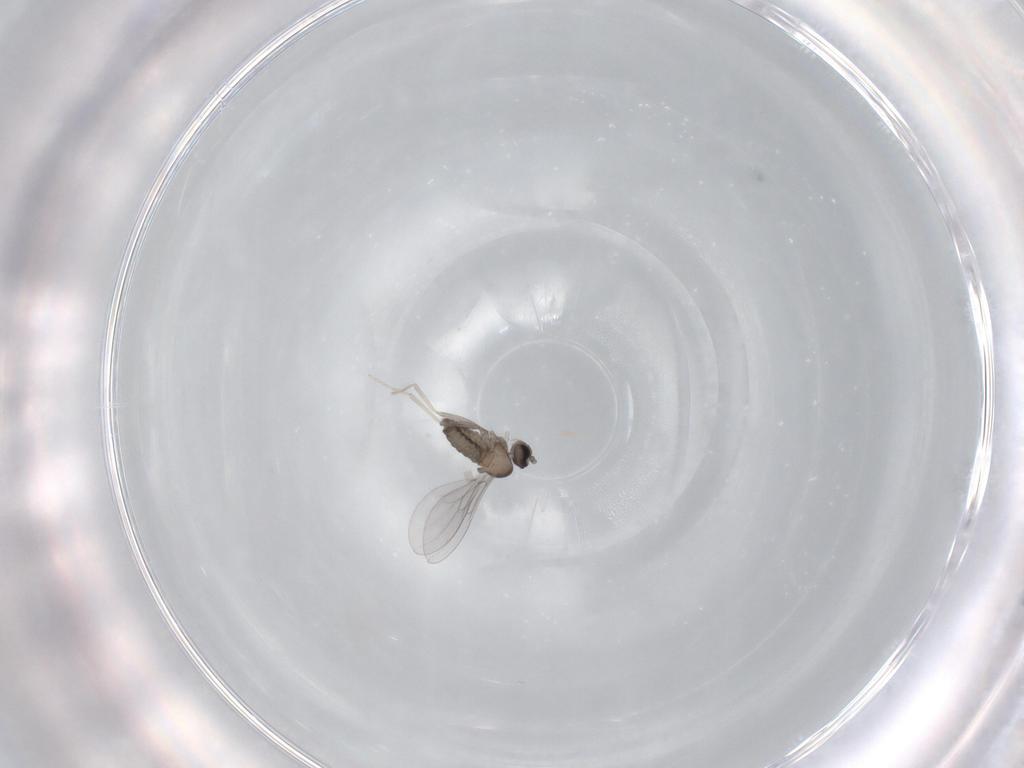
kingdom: Animalia
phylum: Arthropoda
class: Insecta
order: Diptera
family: Cecidomyiidae
